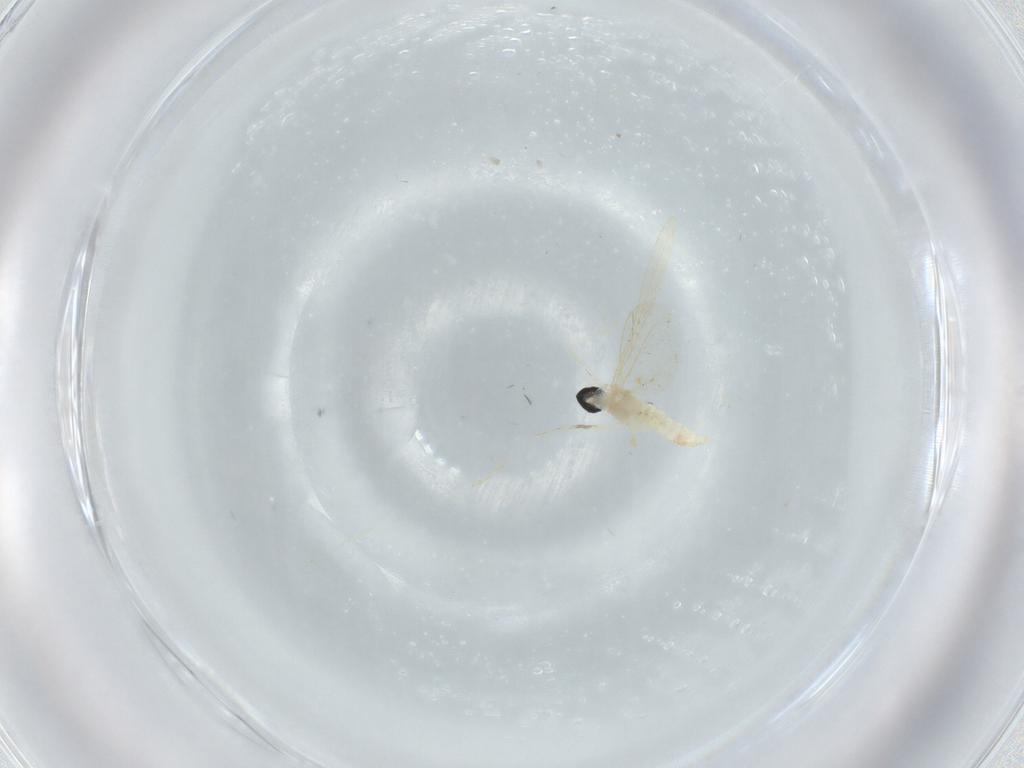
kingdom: Animalia
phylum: Arthropoda
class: Insecta
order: Diptera
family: Cecidomyiidae
